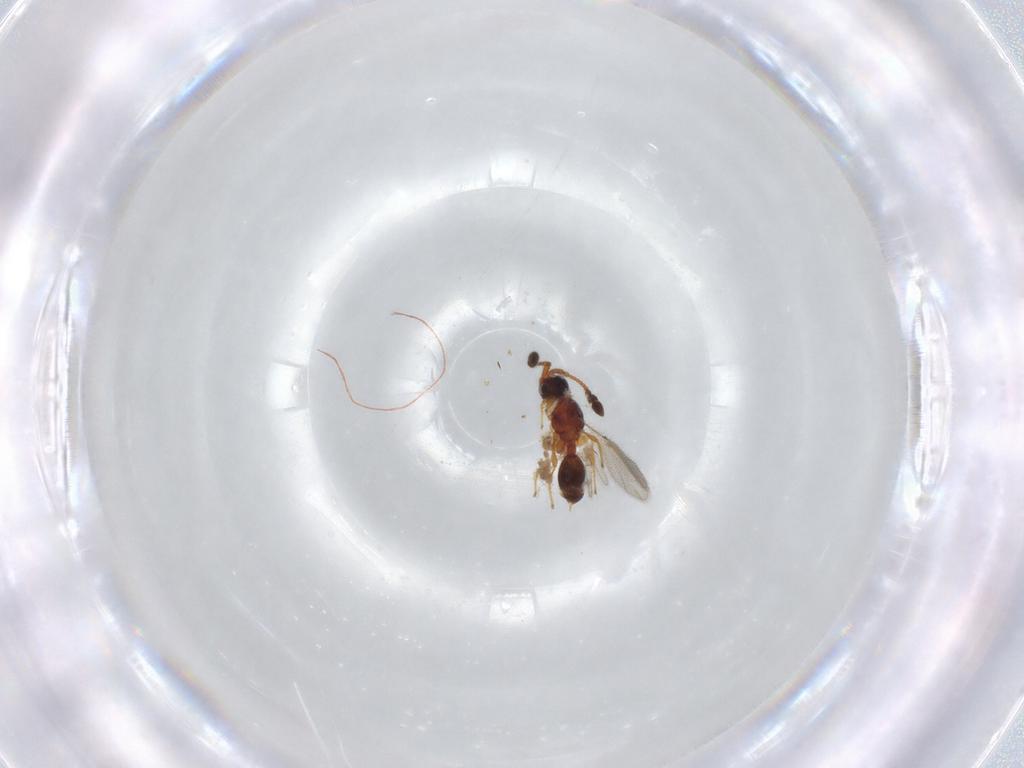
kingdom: Animalia
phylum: Arthropoda
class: Insecta
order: Hymenoptera
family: Diapriidae
